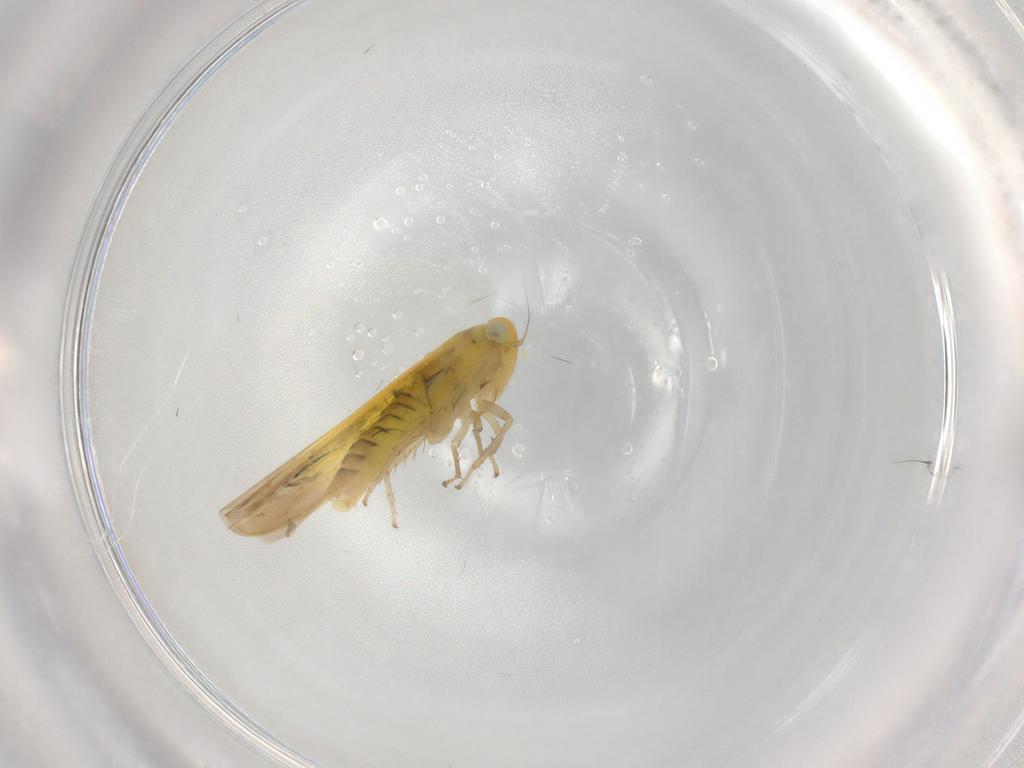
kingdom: Animalia
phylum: Arthropoda
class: Insecta
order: Hemiptera
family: Cicadellidae
